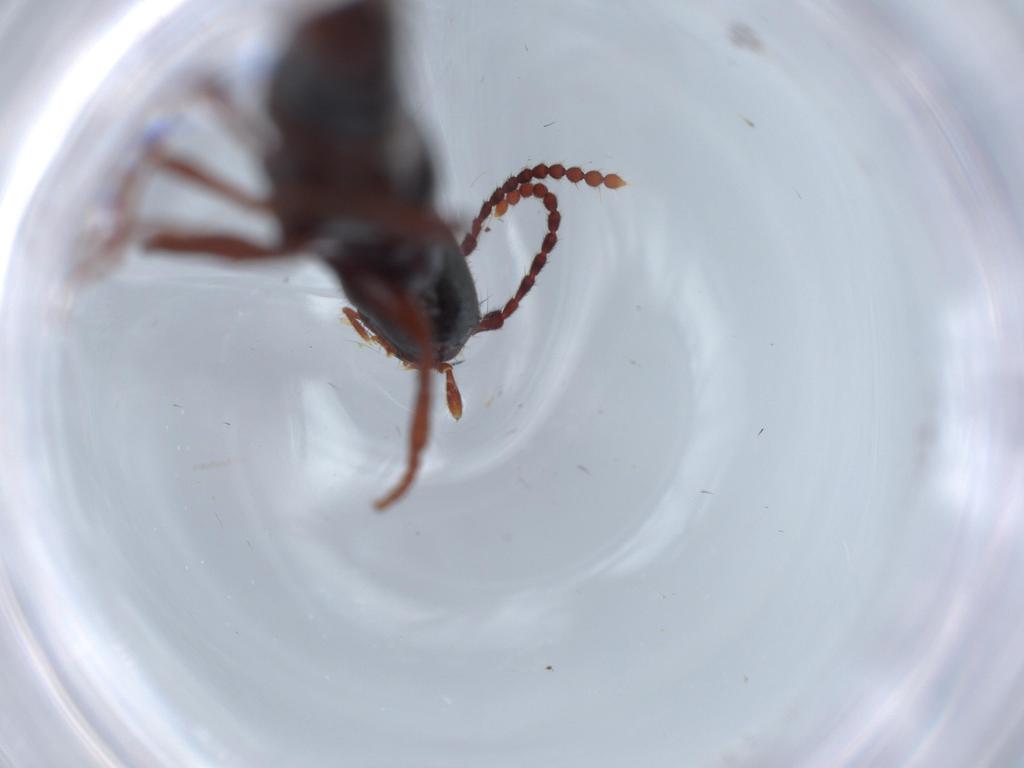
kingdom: Animalia
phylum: Arthropoda
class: Insecta
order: Coleoptera
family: Staphylinidae
